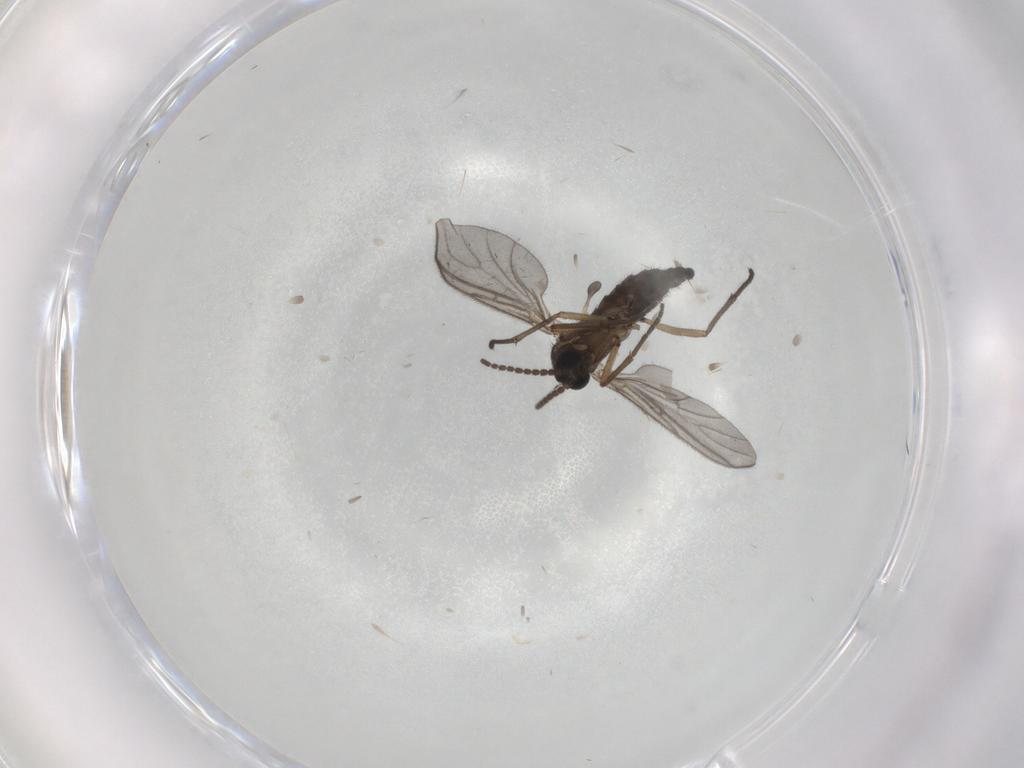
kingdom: Animalia
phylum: Arthropoda
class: Insecta
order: Diptera
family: Sciaridae
